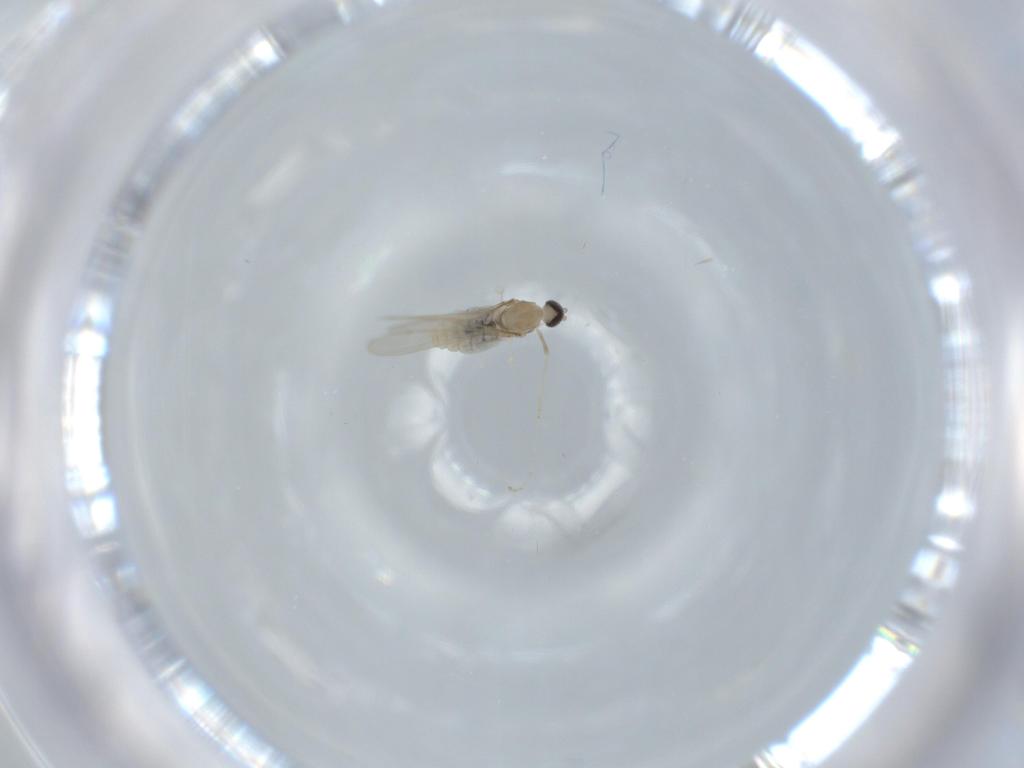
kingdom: Animalia
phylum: Arthropoda
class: Insecta
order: Diptera
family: Cecidomyiidae
